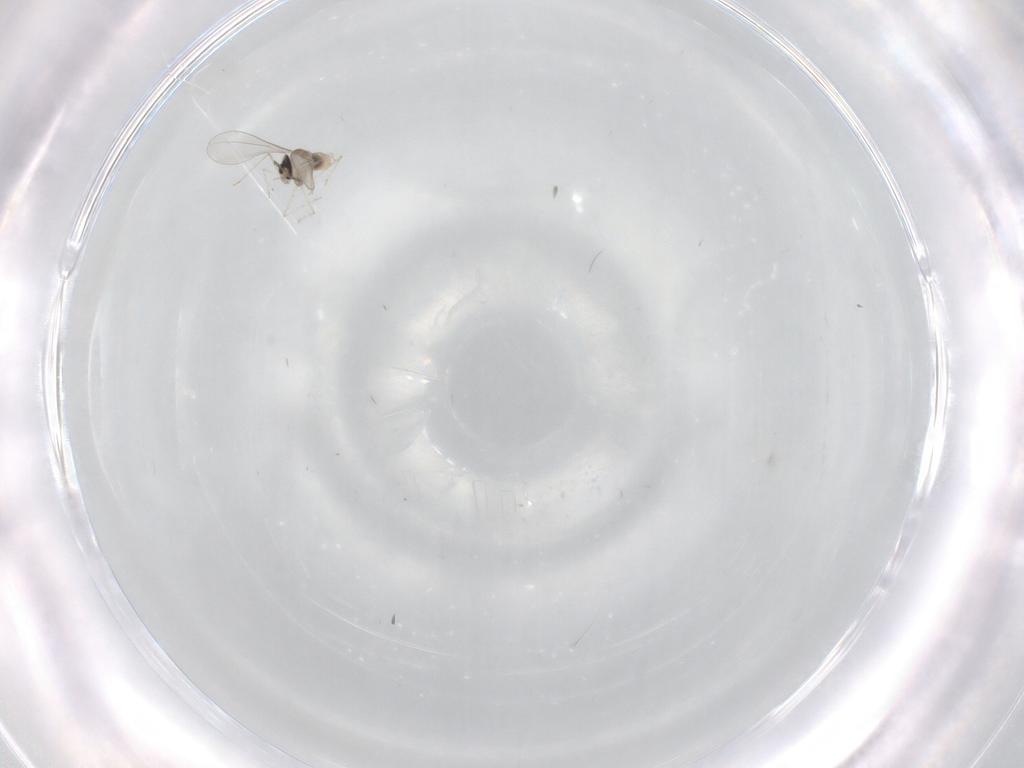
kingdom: Animalia
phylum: Arthropoda
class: Insecta
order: Diptera
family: Cecidomyiidae
